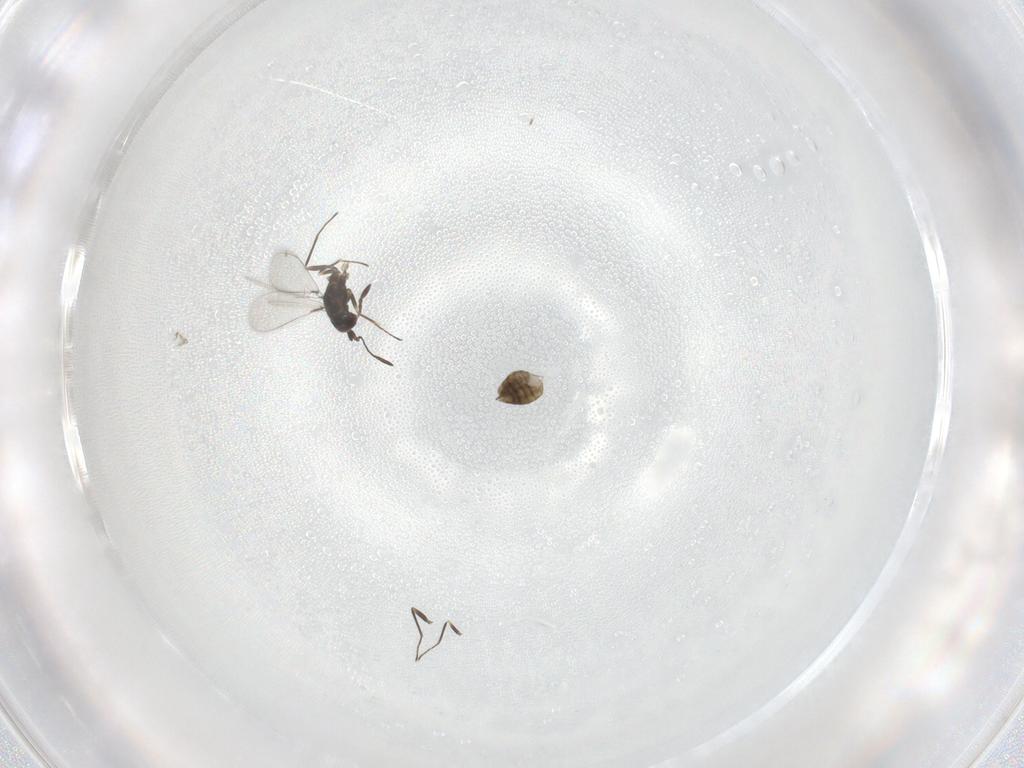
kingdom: Animalia
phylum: Arthropoda
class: Insecta
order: Hymenoptera
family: Mymaridae
